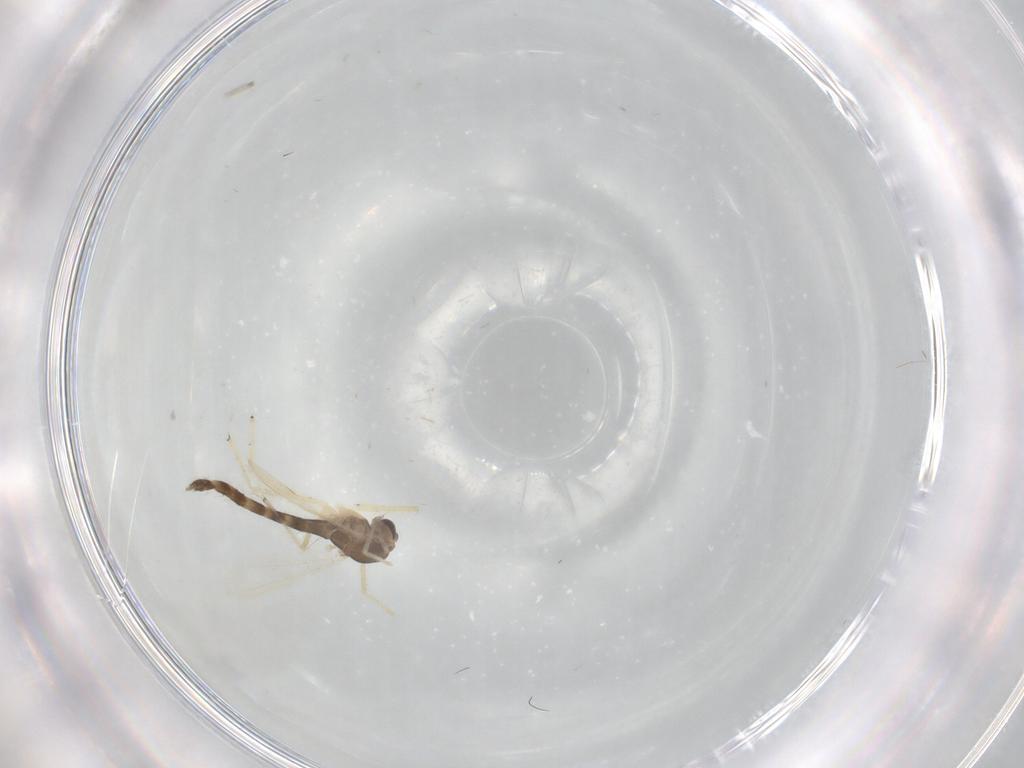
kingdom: Animalia
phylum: Arthropoda
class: Insecta
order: Diptera
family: Chironomidae
